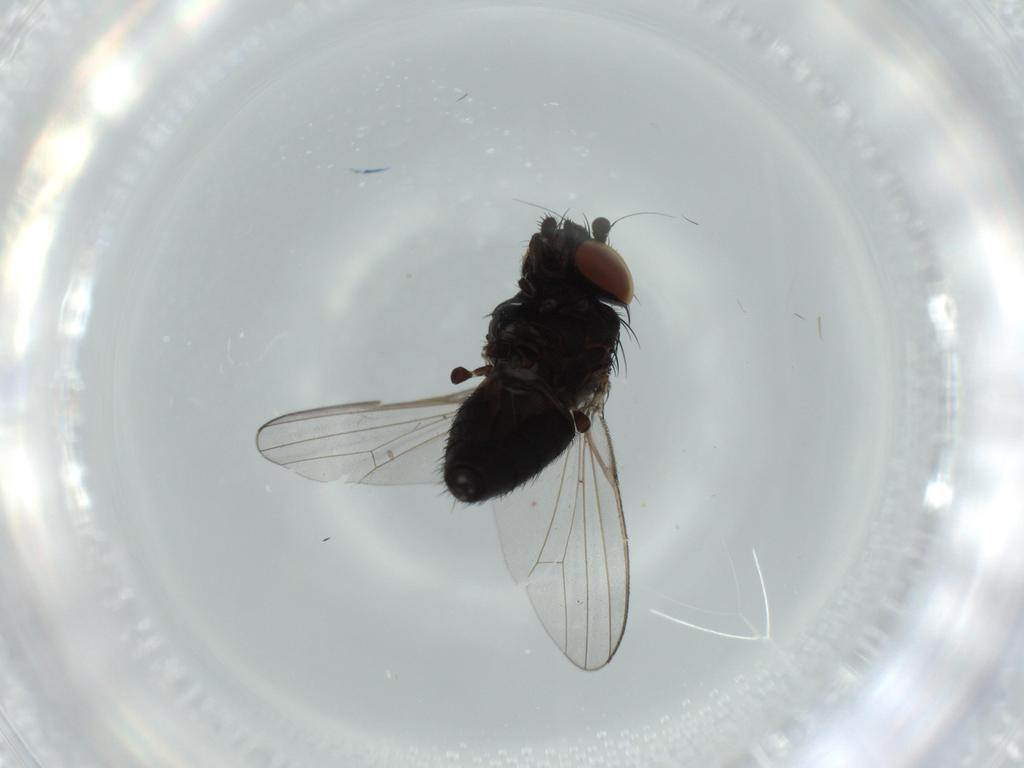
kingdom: Animalia
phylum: Arthropoda
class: Insecta
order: Diptera
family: Milichiidae
